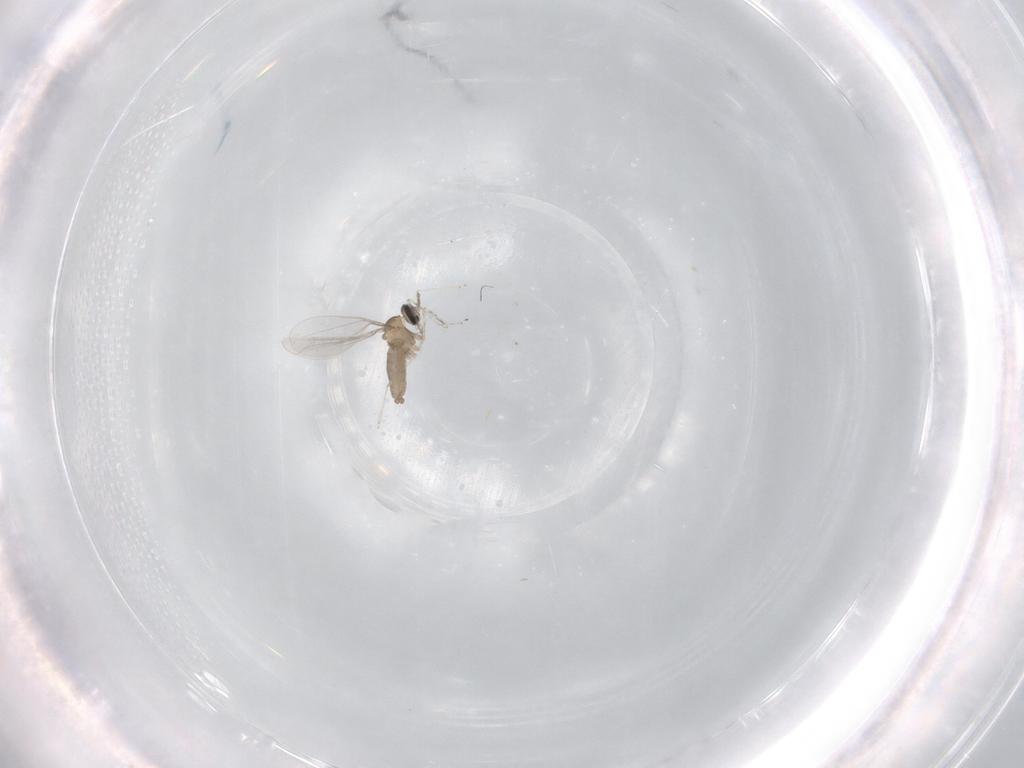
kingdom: Animalia
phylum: Arthropoda
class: Insecta
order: Diptera
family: Cecidomyiidae
